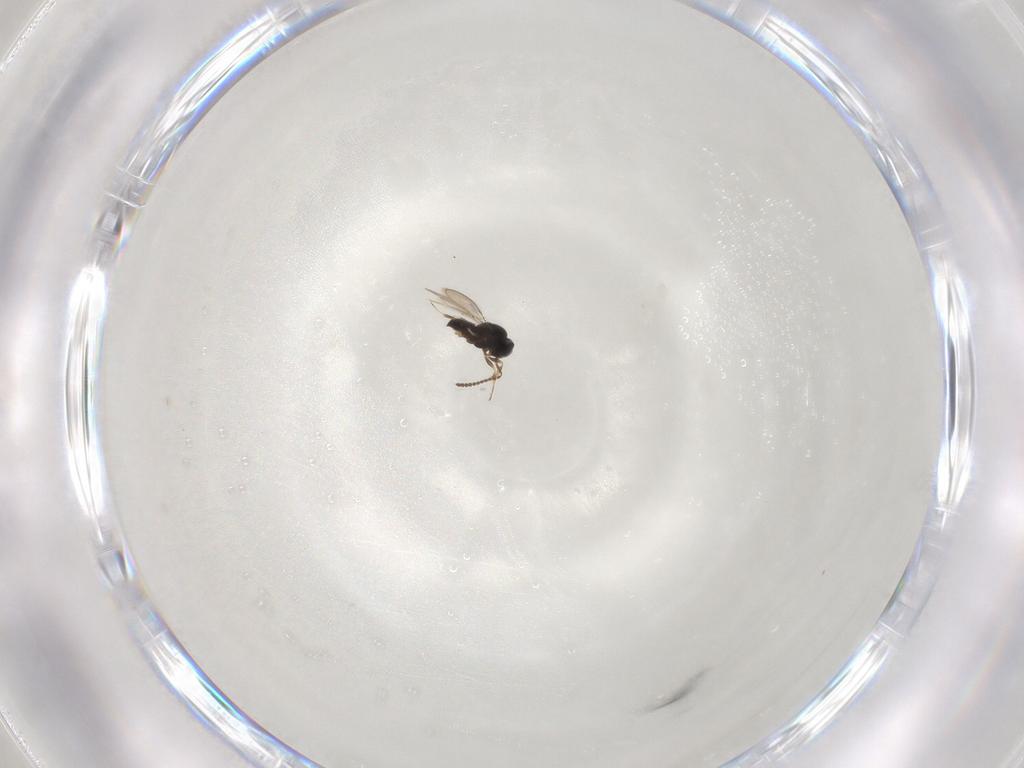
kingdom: Animalia
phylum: Arthropoda
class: Insecta
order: Hymenoptera
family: Scelionidae
